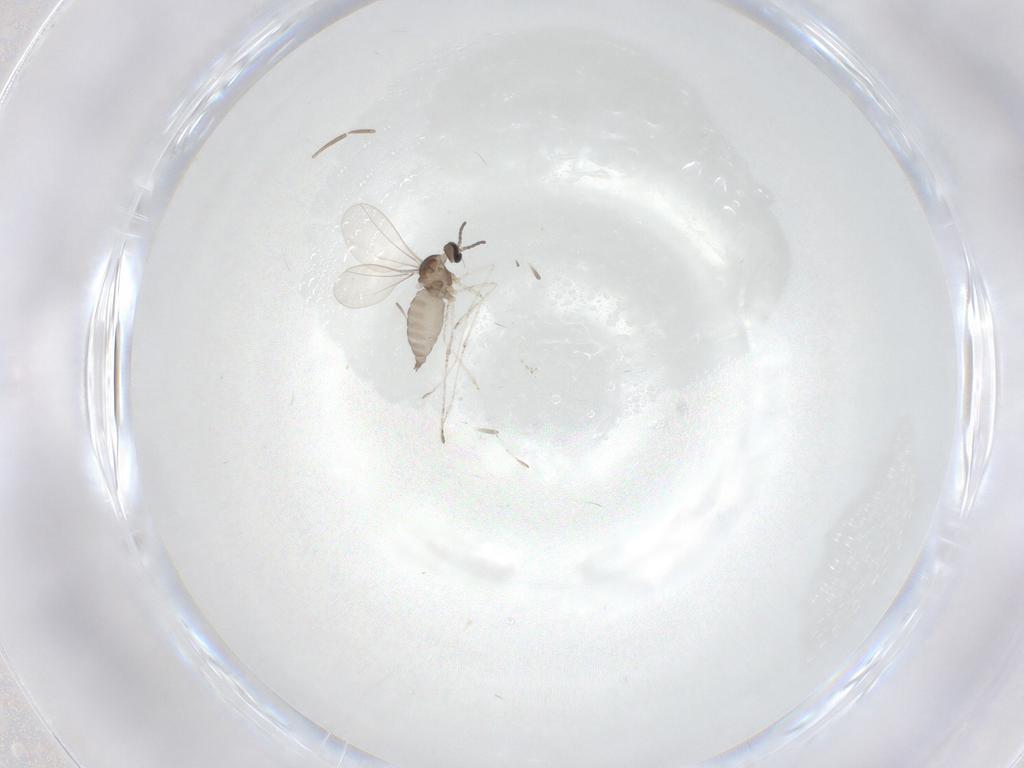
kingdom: Animalia
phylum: Arthropoda
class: Insecta
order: Diptera
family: Cecidomyiidae
